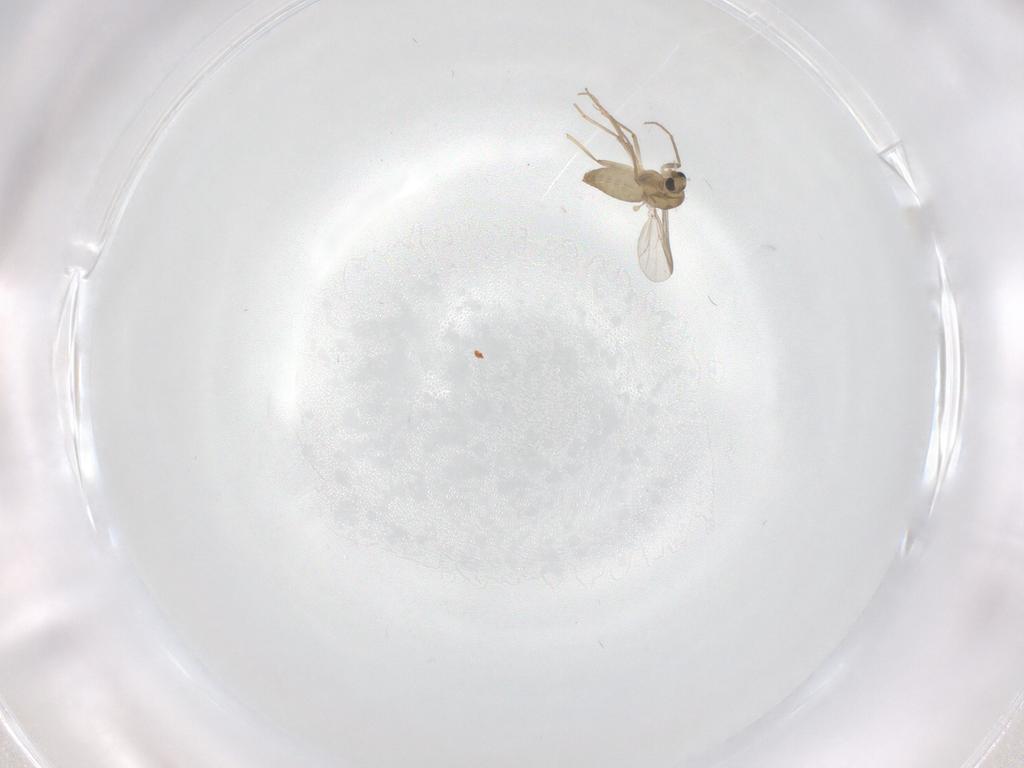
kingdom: Animalia
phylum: Arthropoda
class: Insecta
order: Diptera
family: Chironomidae
